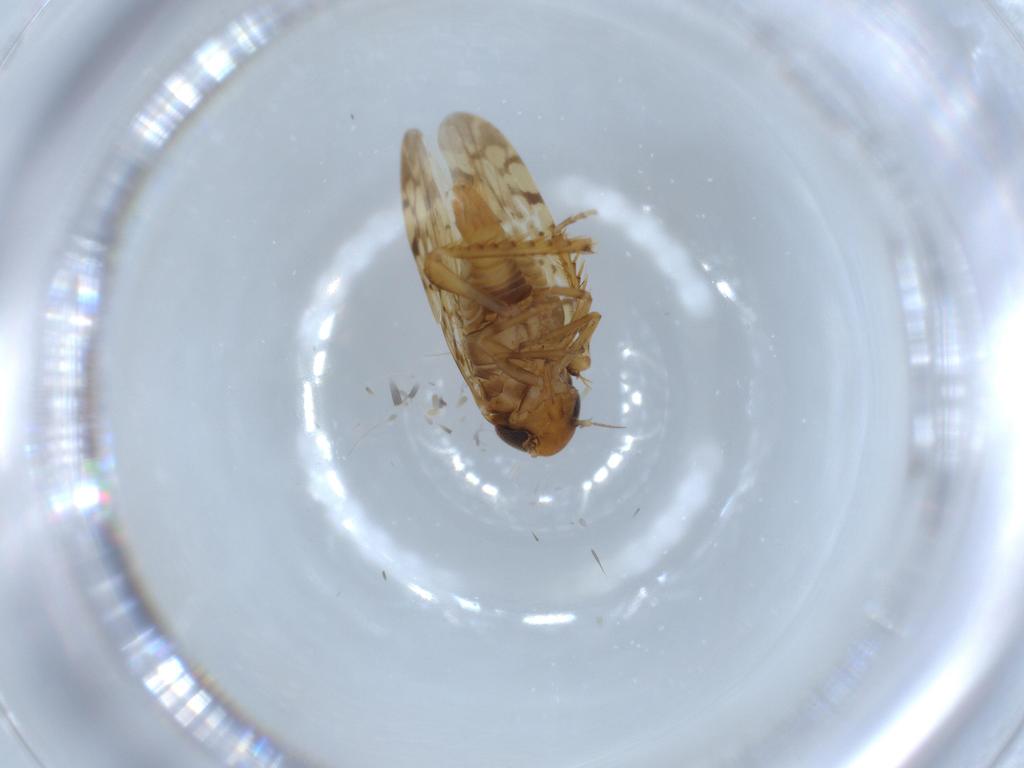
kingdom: Animalia
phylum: Arthropoda
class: Insecta
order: Hemiptera
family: Cicadellidae
